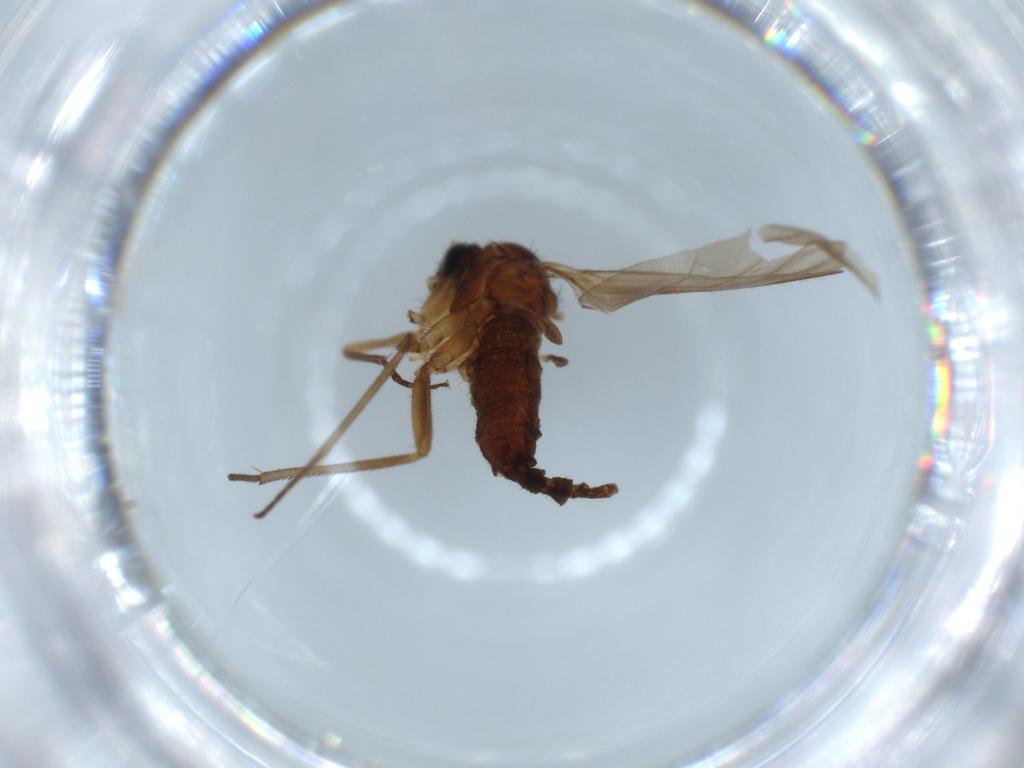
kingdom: Animalia
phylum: Arthropoda
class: Insecta
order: Diptera
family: Sciaridae
